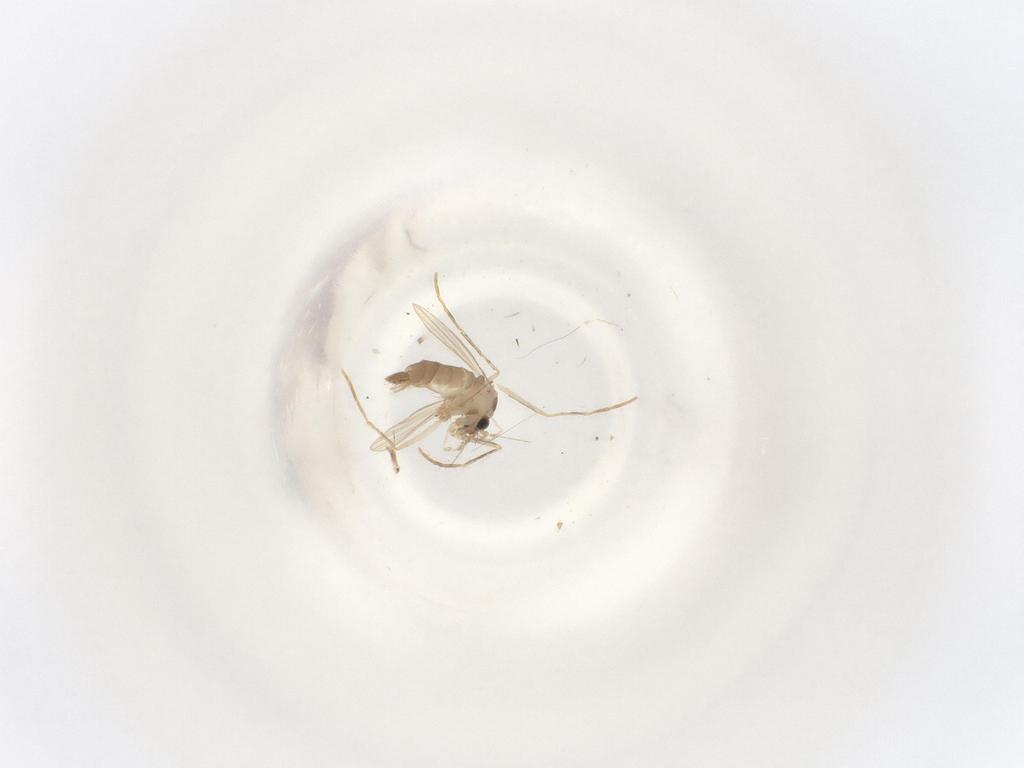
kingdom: Animalia
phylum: Arthropoda
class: Insecta
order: Diptera
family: Psychodidae
